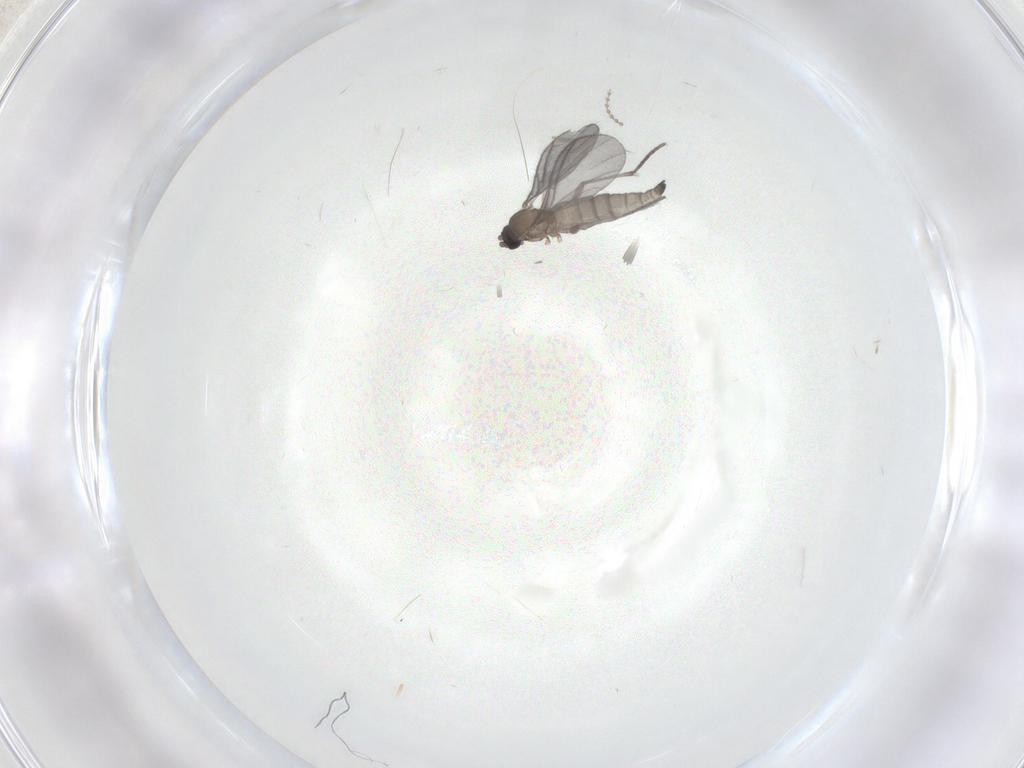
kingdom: Animalia
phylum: Arthropoda
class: Insecta
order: Diptera
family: Sciaridae
